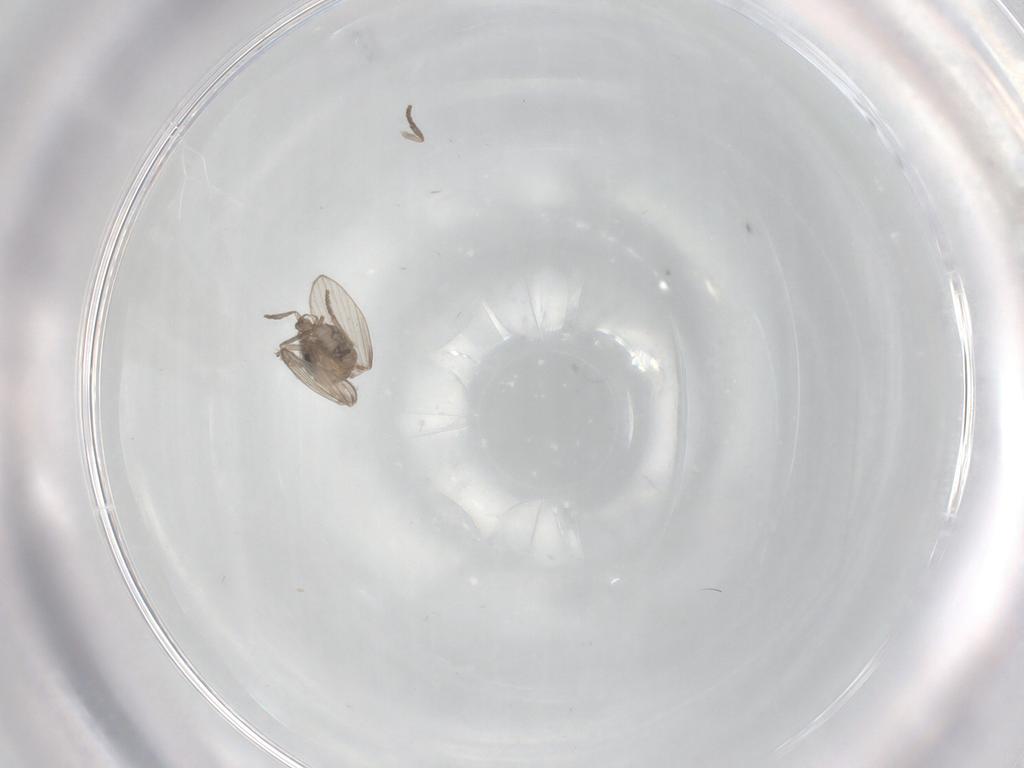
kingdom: Animalia
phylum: Arthropoda
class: Insecta
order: Diptera
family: Psychodidae
